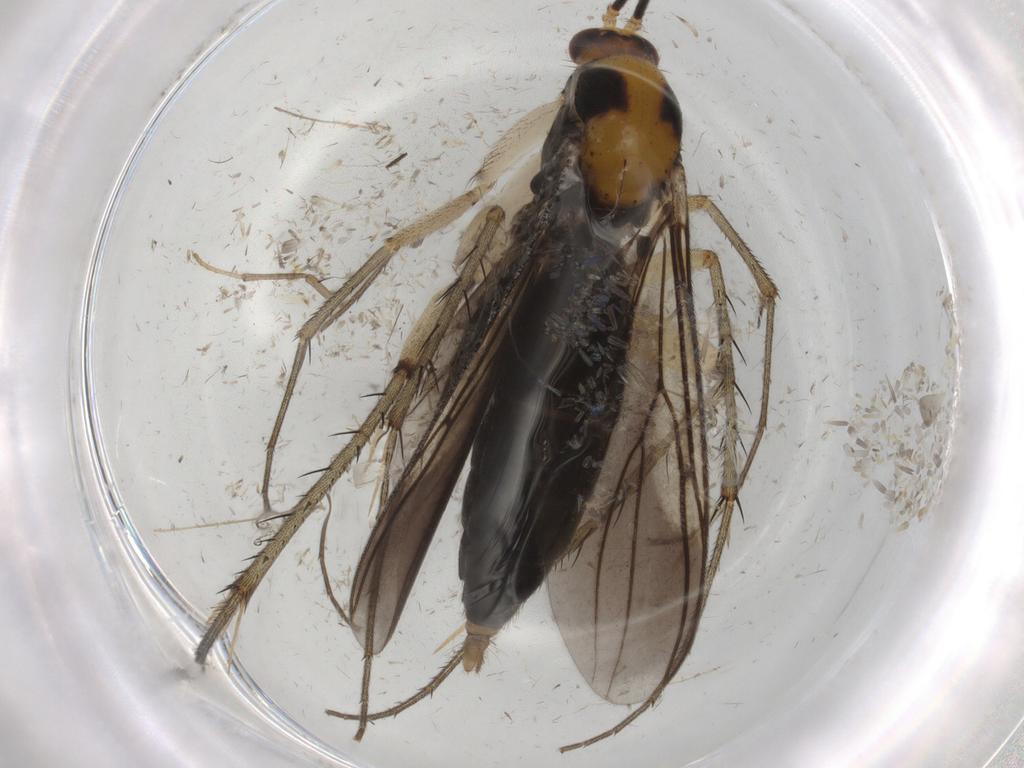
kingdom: Animalia
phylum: Arthropoda
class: Insecta
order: Diptera
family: Mycetophilidae
